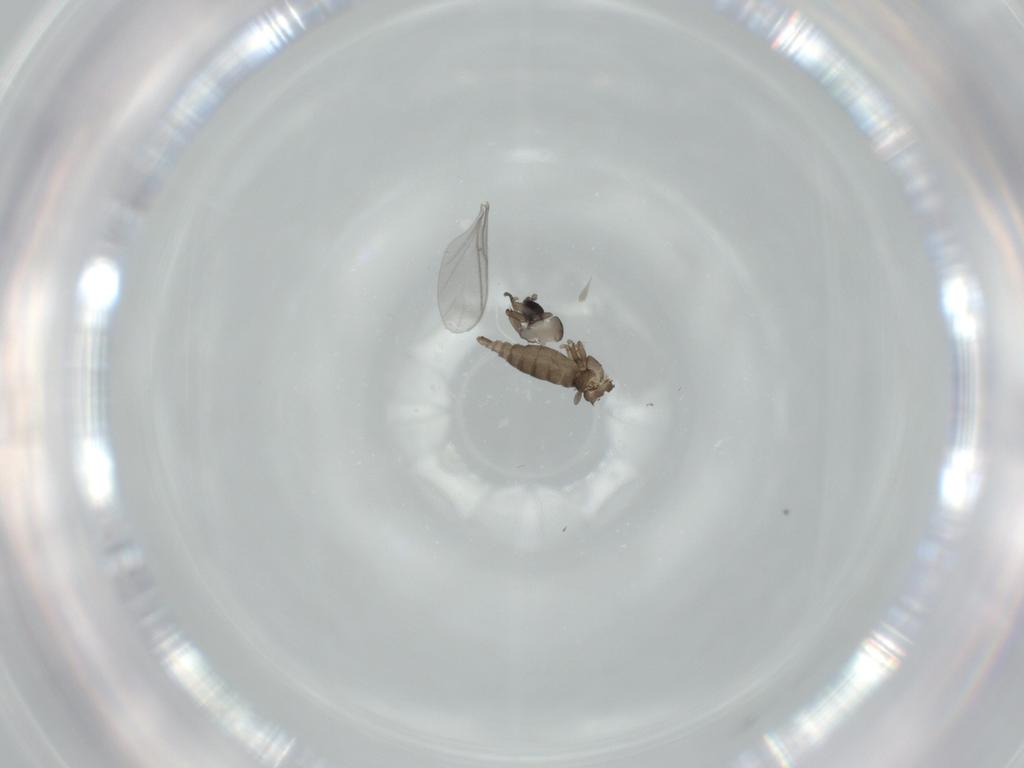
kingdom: Animalia
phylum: Arthropoda
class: Insecta
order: Diptera
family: Sciaridae
